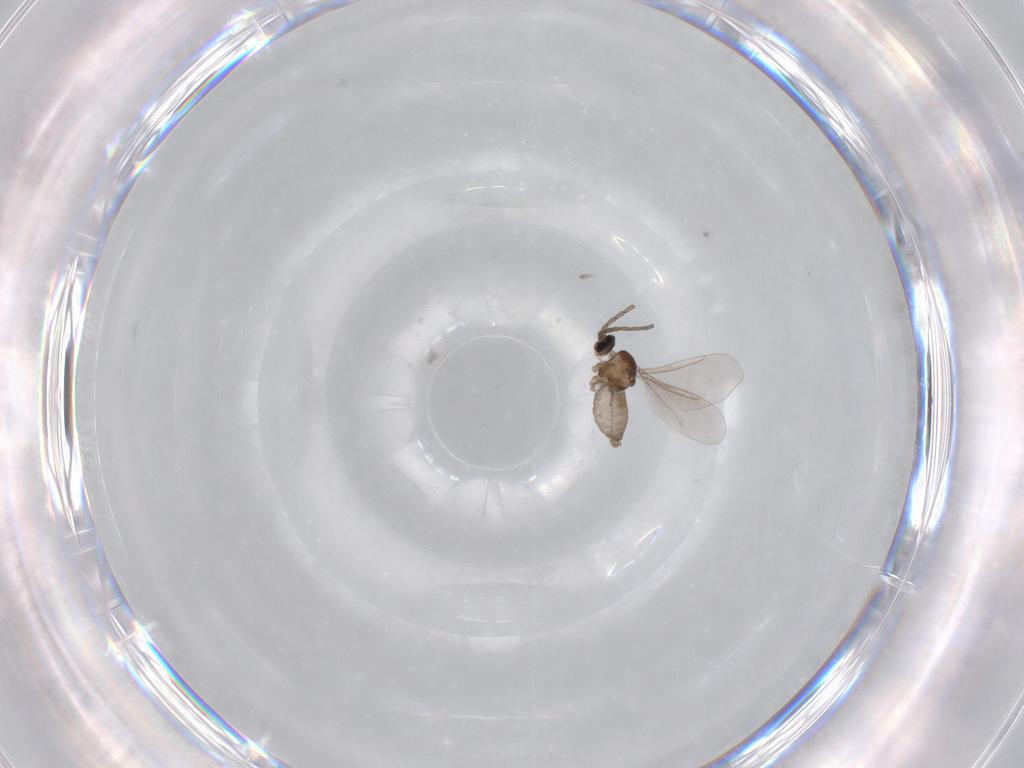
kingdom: Animalia
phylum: Arthropoda
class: Insecta
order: Diptera
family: Cecidomyiidae
